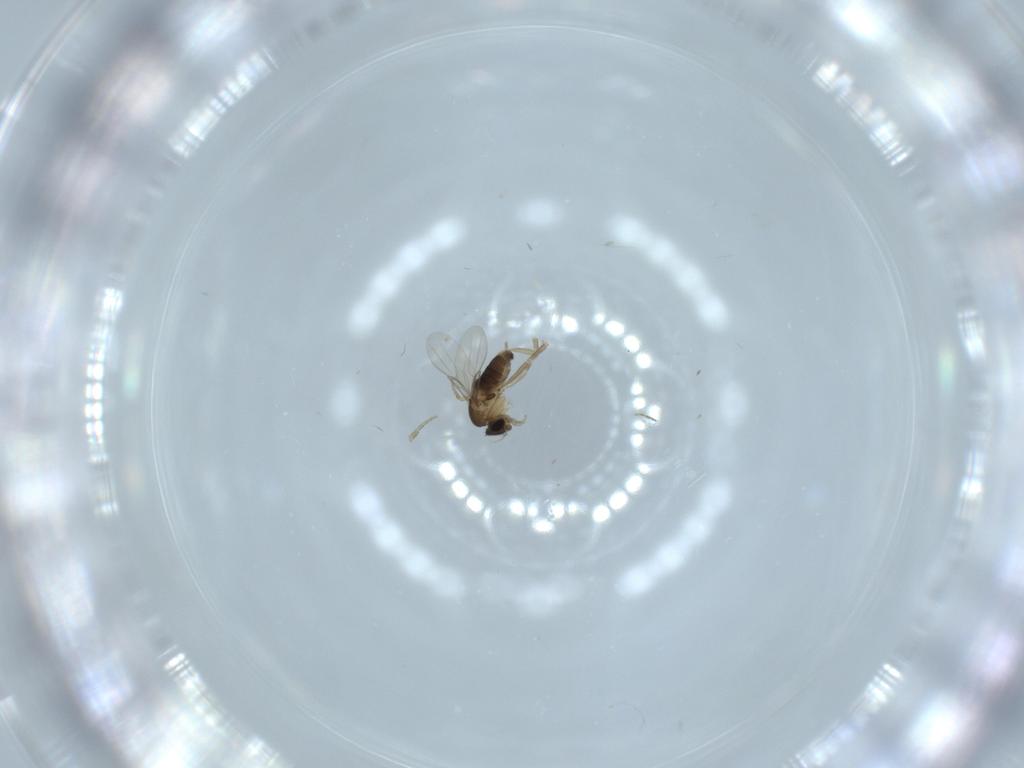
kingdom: Animalia
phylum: Arthropoda
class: Insecta
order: Diptera
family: Phoridae
